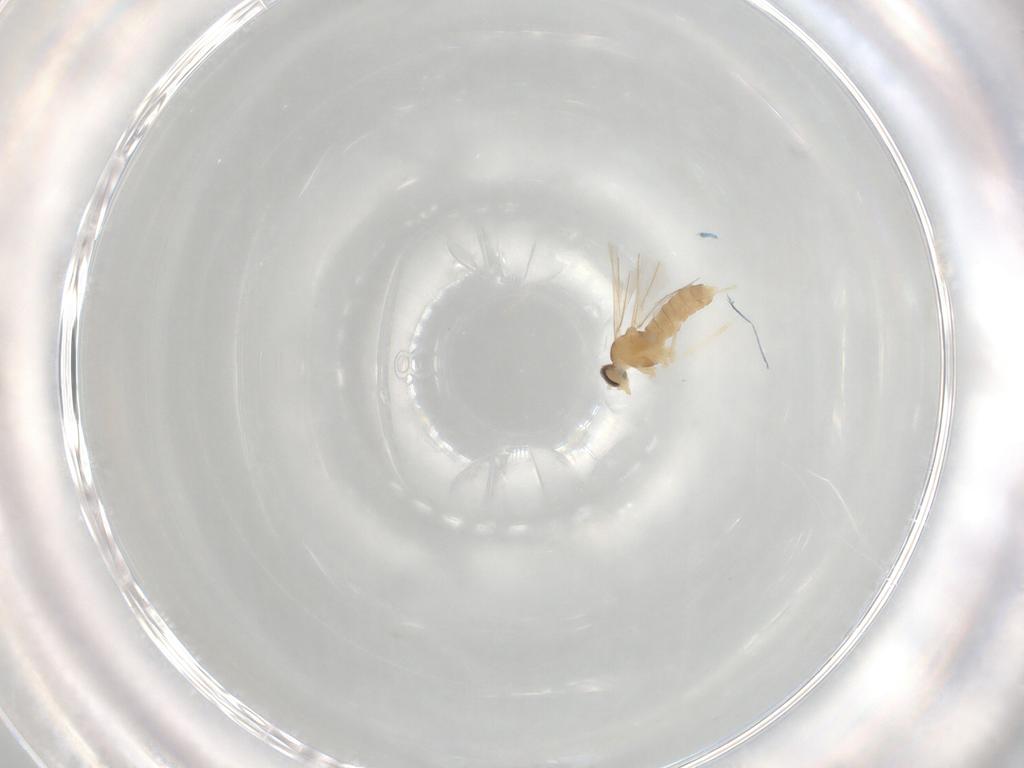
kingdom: Animalia
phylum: Arthropoda
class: Insecta
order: Diptera
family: Cecidomyiidae
